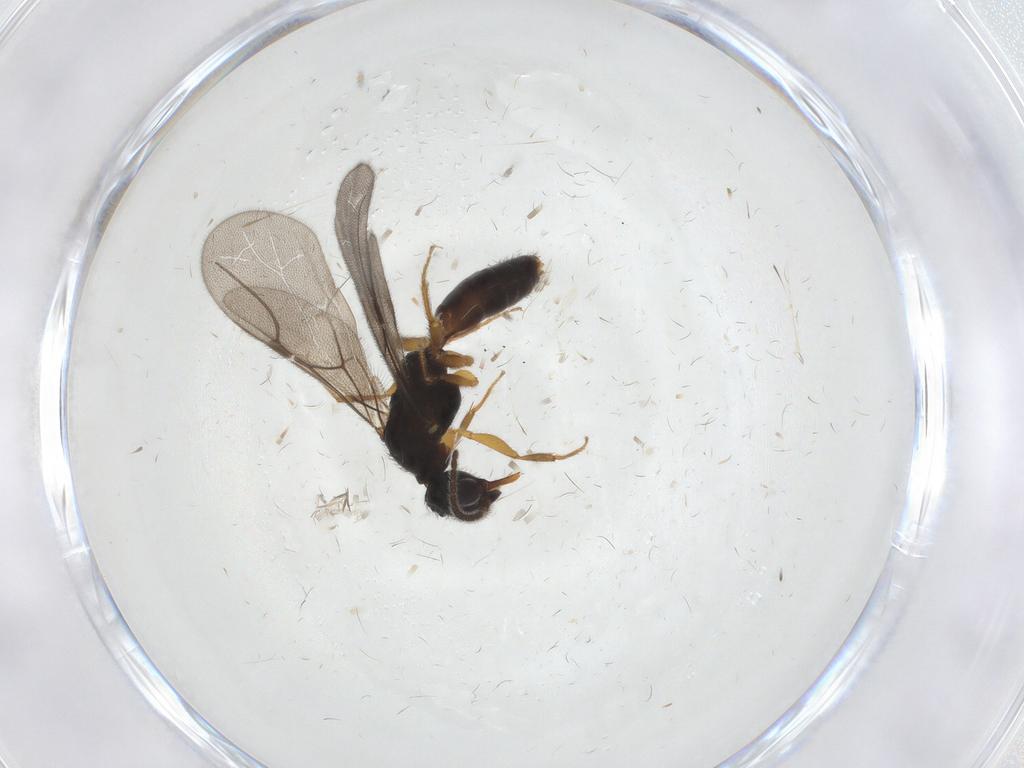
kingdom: Animalia
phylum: Arthropoda
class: Insecta
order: Hymenoptera
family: Bethylidae
